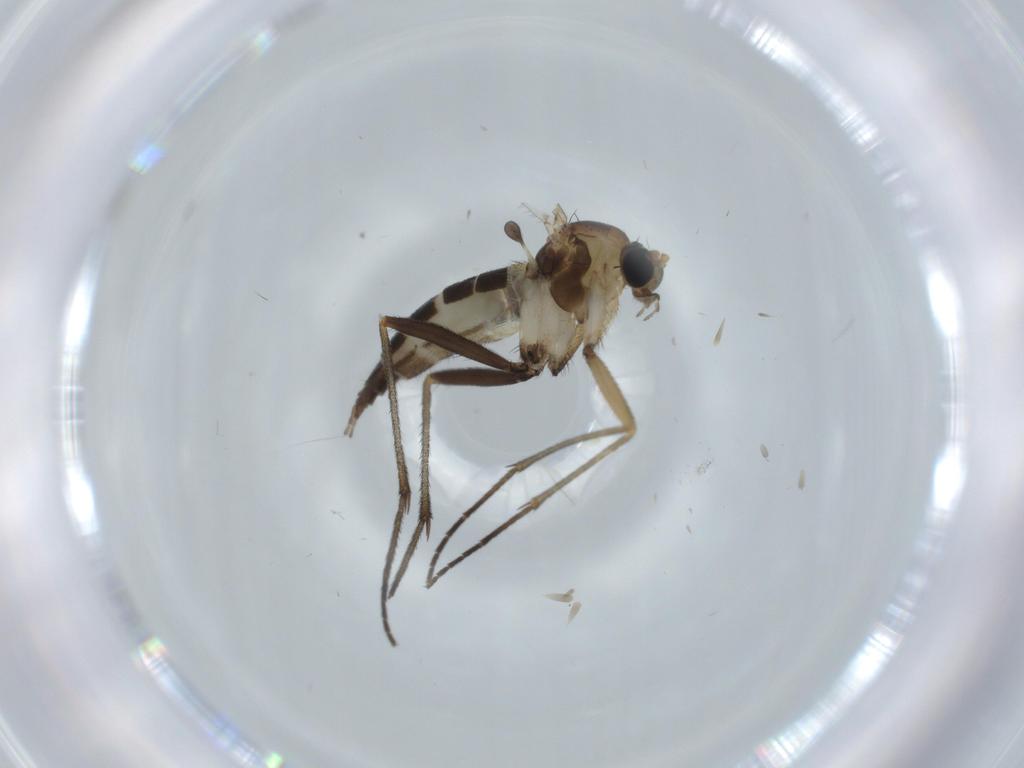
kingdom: Animalia
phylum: Arthropoda
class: Insecta
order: Diptera
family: Sciaridae
